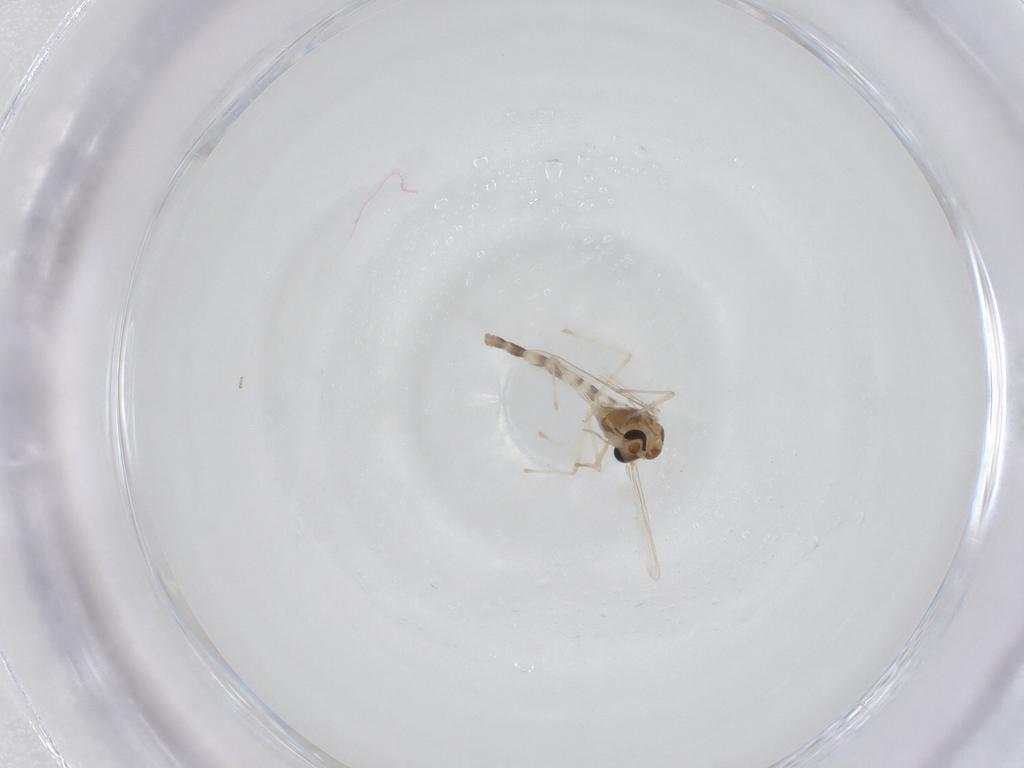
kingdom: Animalia
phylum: Arthropoda
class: Insecta
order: Diptera
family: Chironomidae
